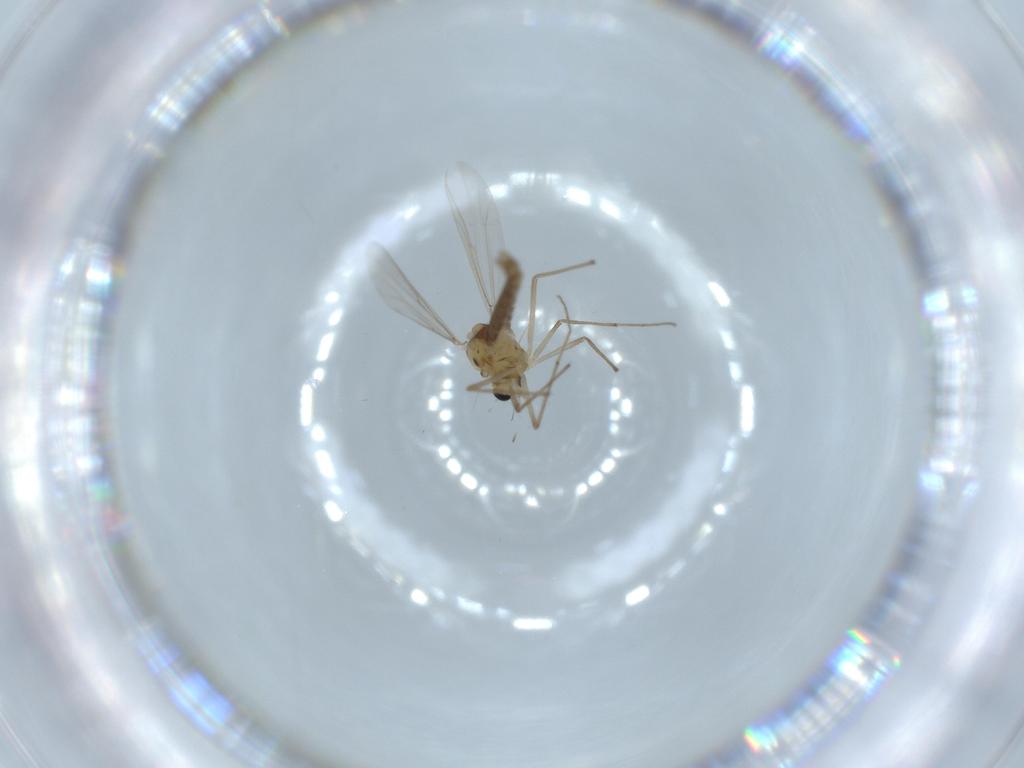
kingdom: Animalia
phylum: Arthropoda
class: Insecta
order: Diptera
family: Chironomidae
